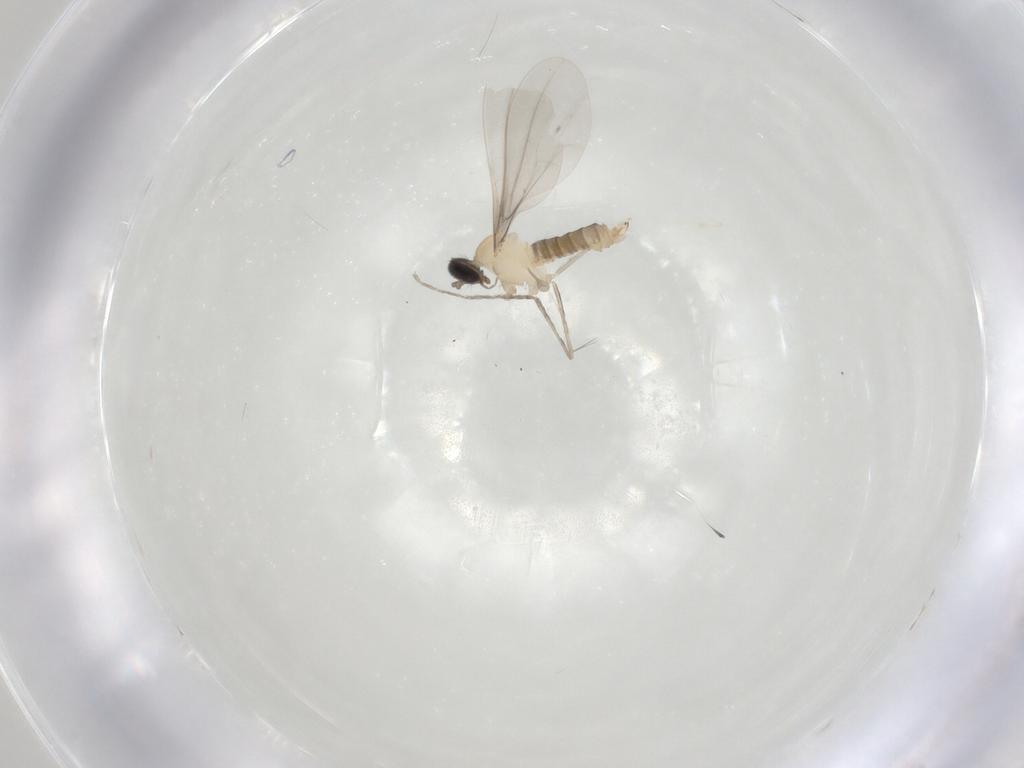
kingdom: Animalia
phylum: Arthropoda
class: Insecta
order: Diptera
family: Cecidomyiidae
